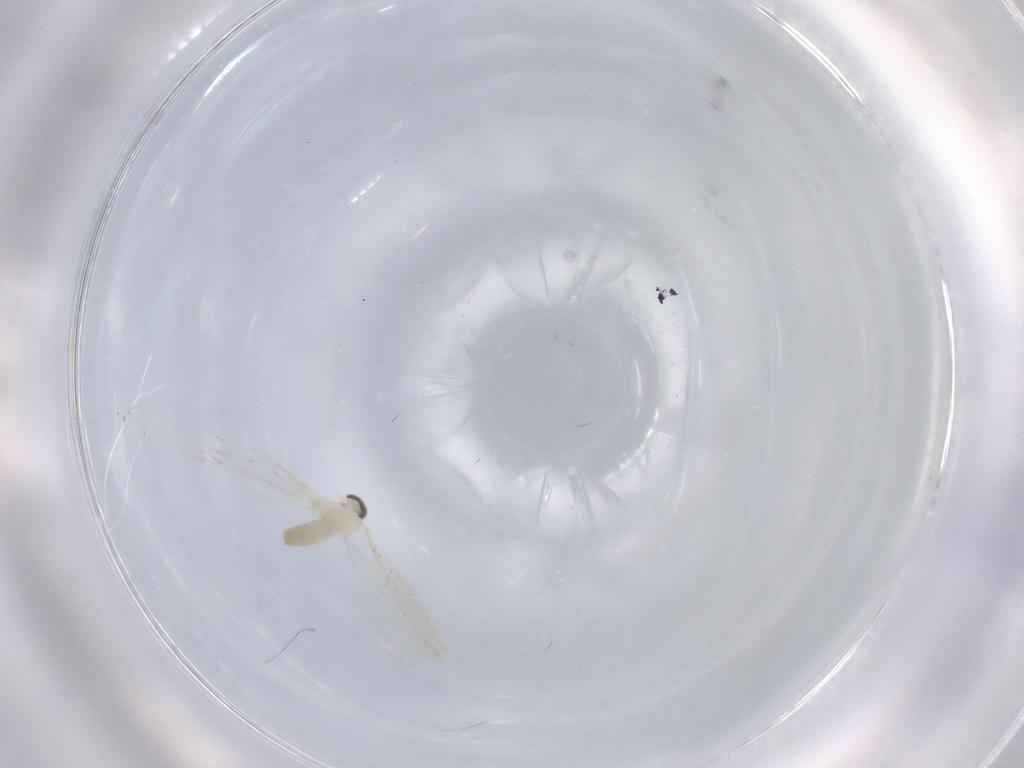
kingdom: Animalia
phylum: Arthropoda
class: Insecta
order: Diptera
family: Cecidomyiidae
